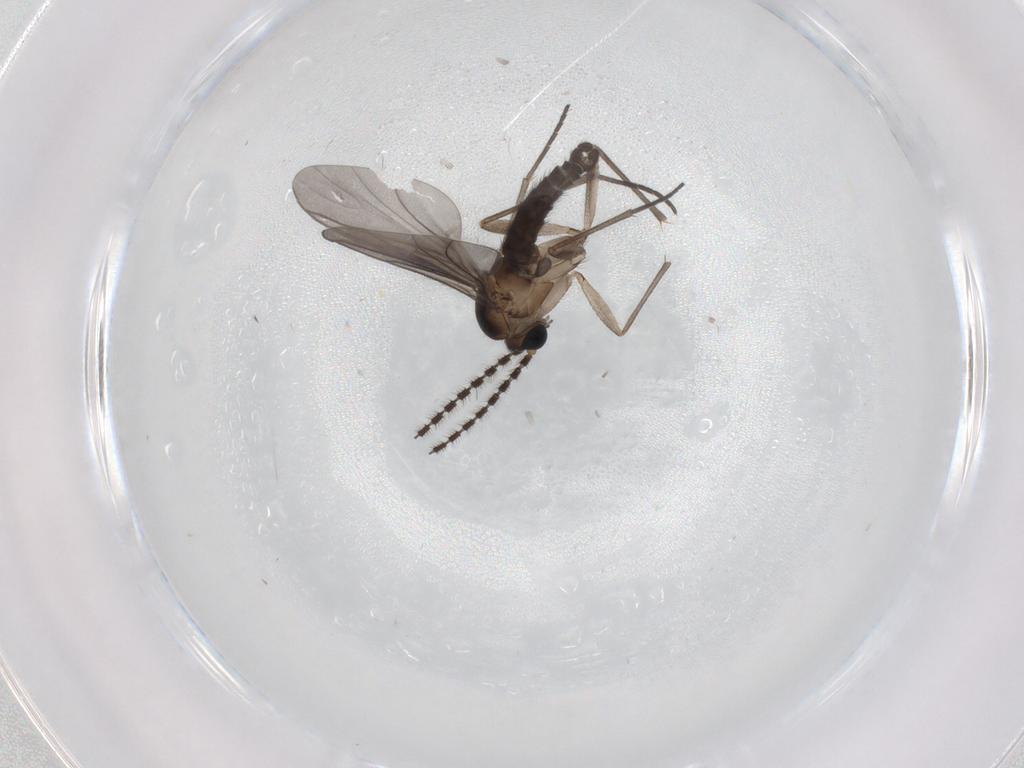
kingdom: Animalia
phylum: Arthropoda
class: Insecta
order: Diptera
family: Sciaridae
